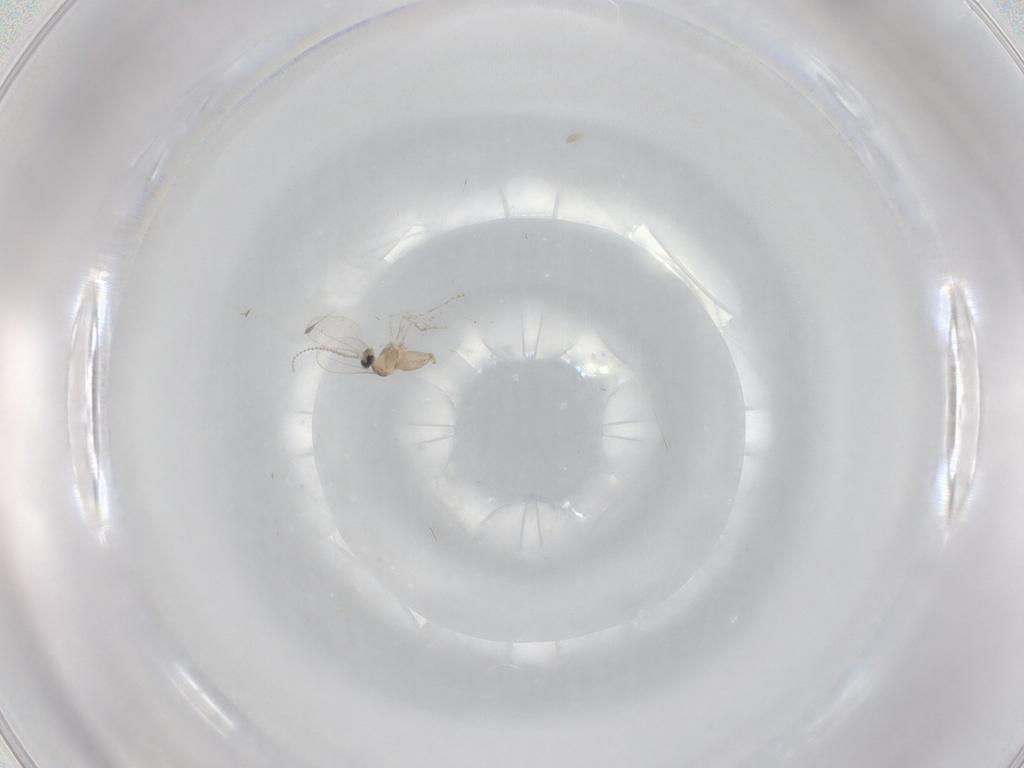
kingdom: Animalia
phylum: Arthropoda
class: Insecta
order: Diptera
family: Cecidomyiidae
